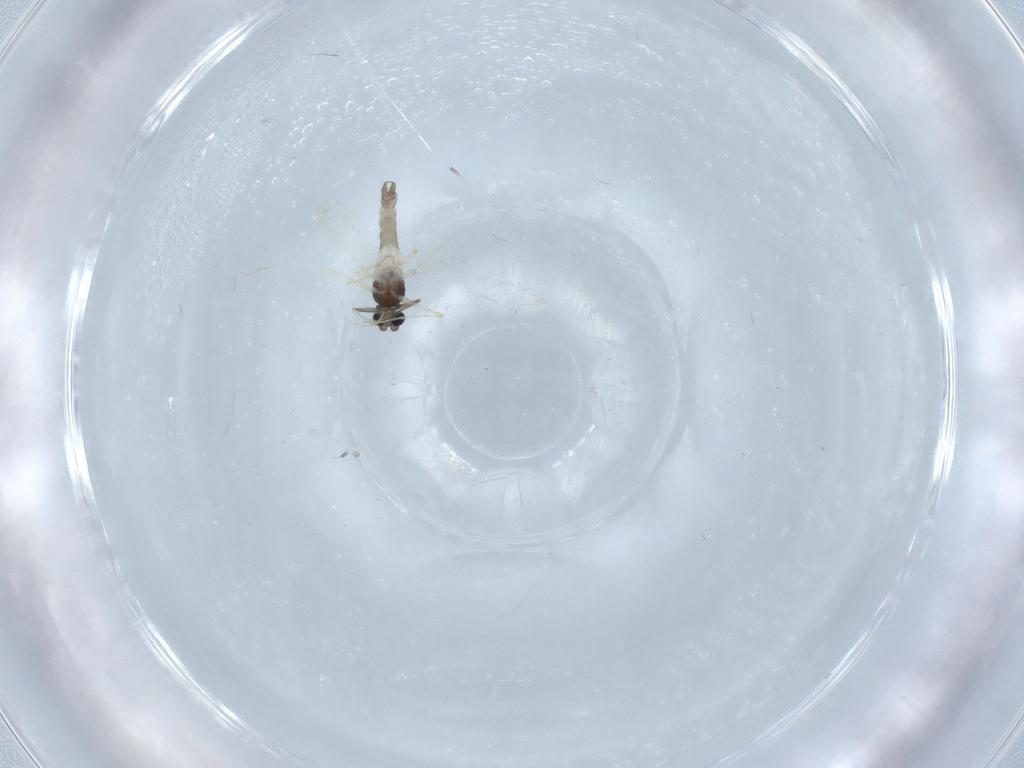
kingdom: Animalia
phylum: Arthropoda
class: Insecta
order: Diptera
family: Chironomidae
